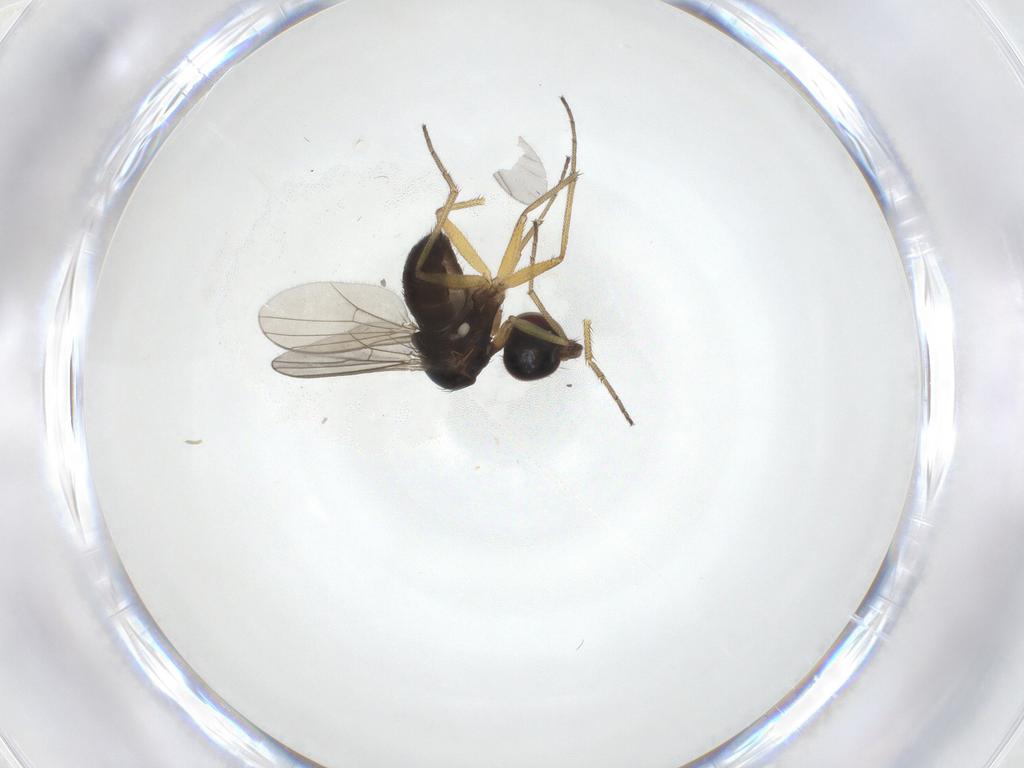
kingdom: Animalia
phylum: Arthropoda
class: Insecta
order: Diptera
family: Dolichopodidae
